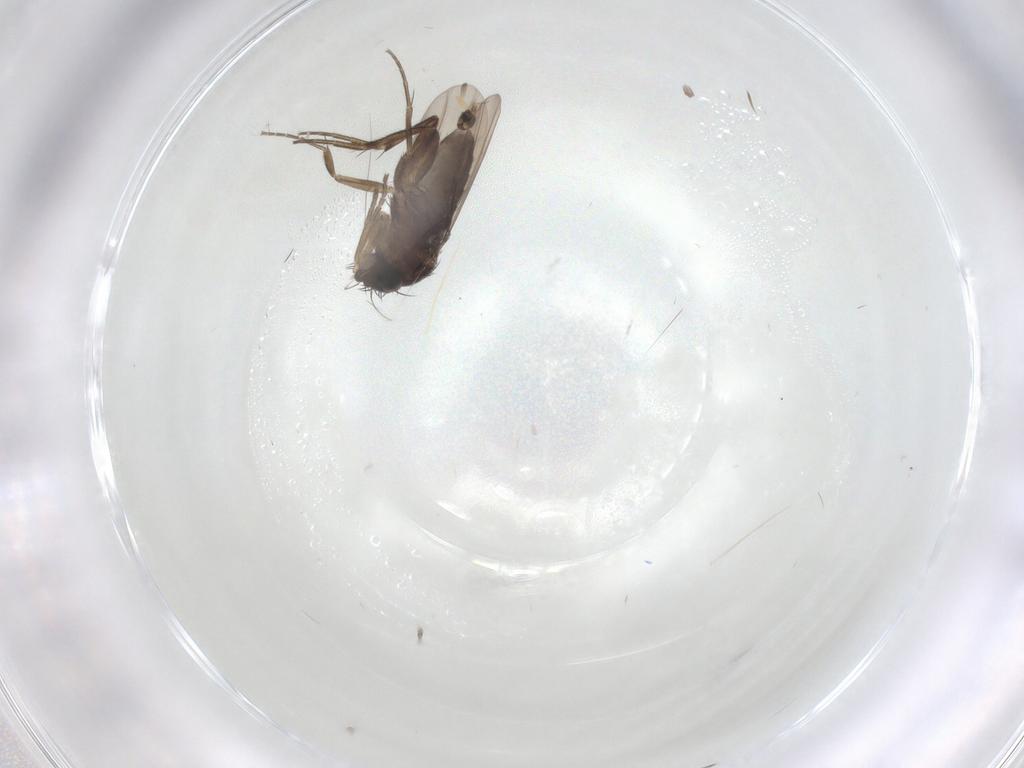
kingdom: Animalia
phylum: Arthropoda
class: Insecta
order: Diptera
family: Phoridae
